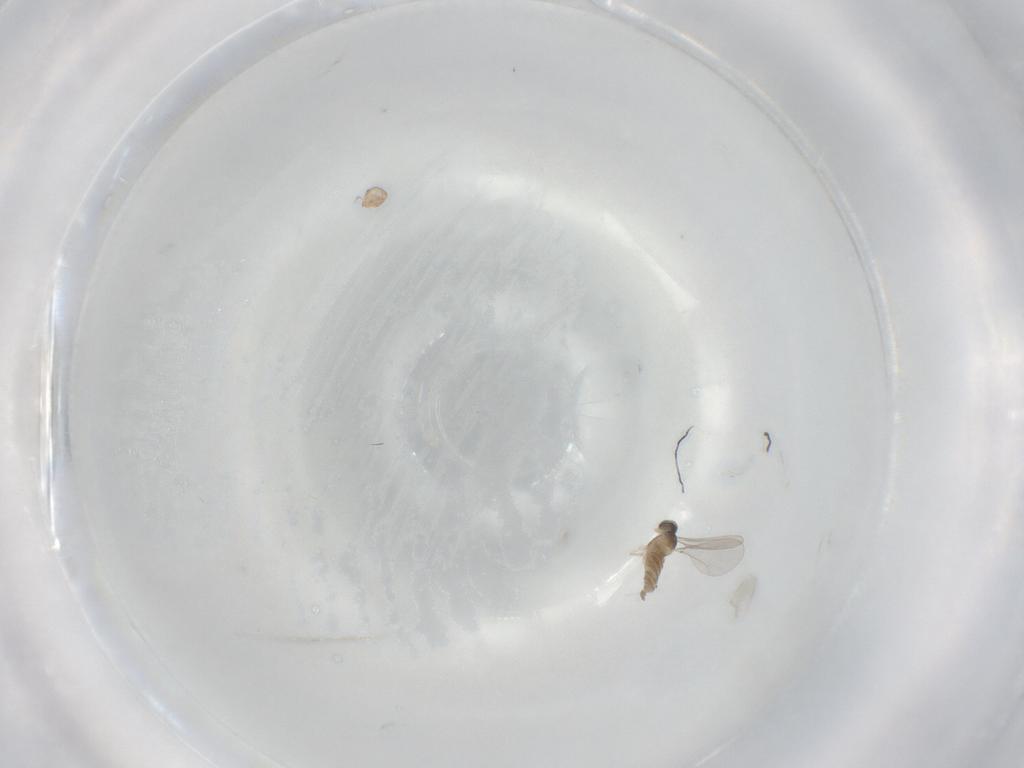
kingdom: Animalia
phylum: Arthropoda
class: Insecta
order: Diptera
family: Cecidomyiidae
